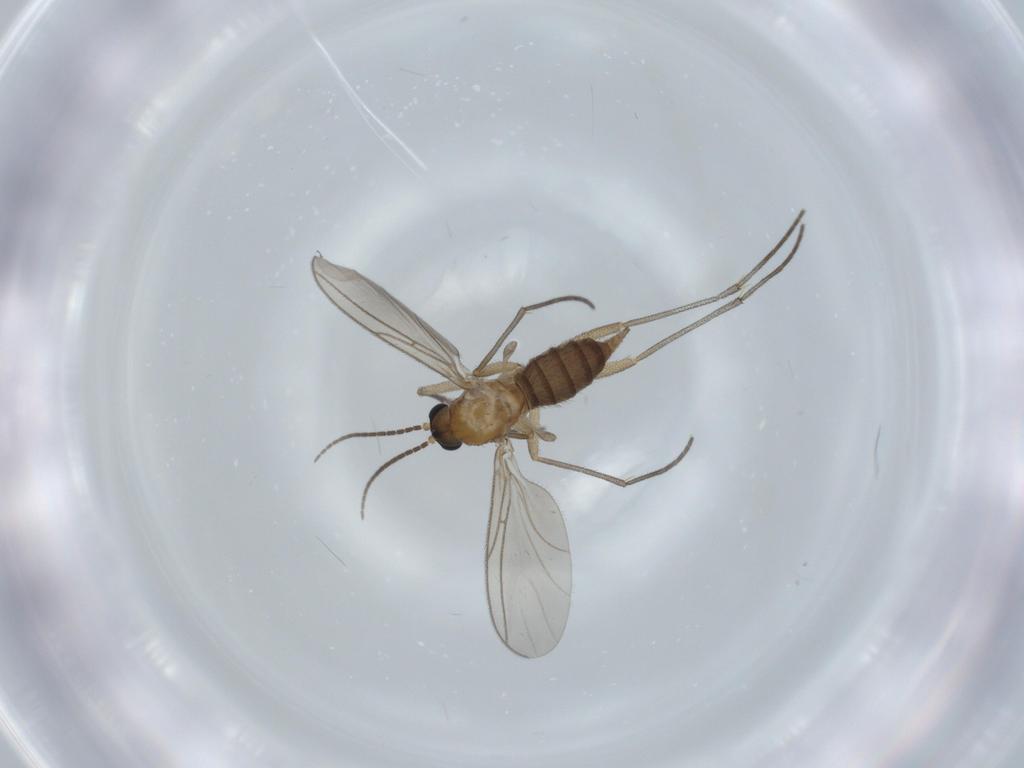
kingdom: Animalia
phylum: Arthropoda
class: Insecta
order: Diptera
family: Sciaridae
